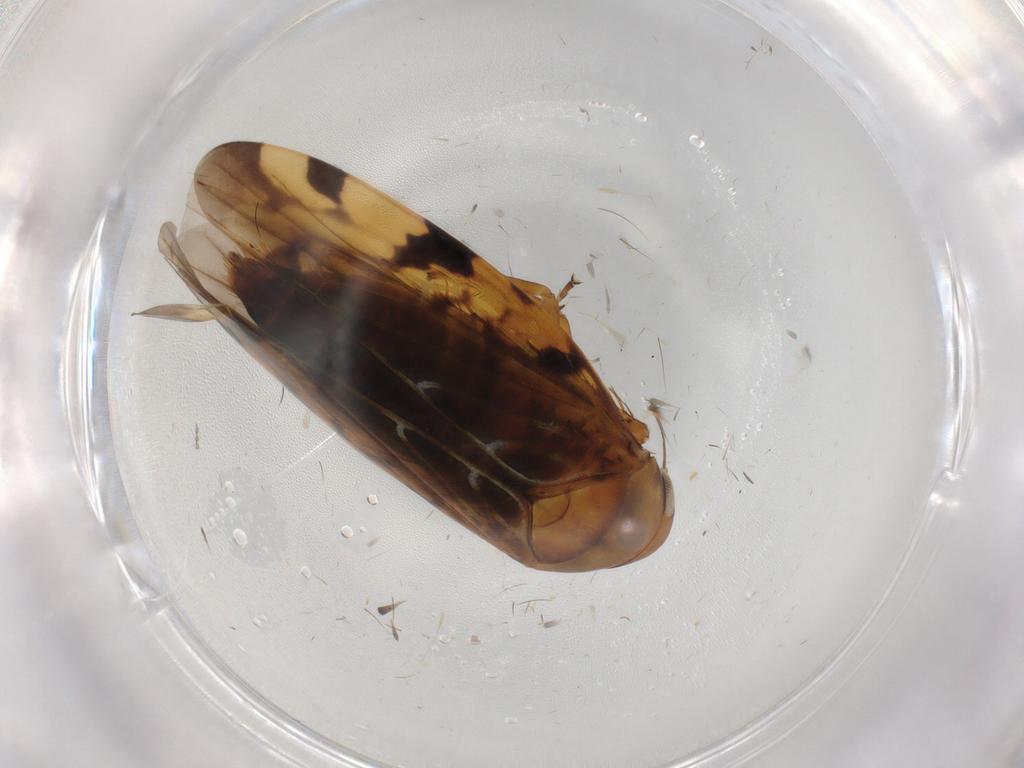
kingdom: Animalia
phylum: Arthropoda
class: Insecta
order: Hemiptera
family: Cicadellidae
